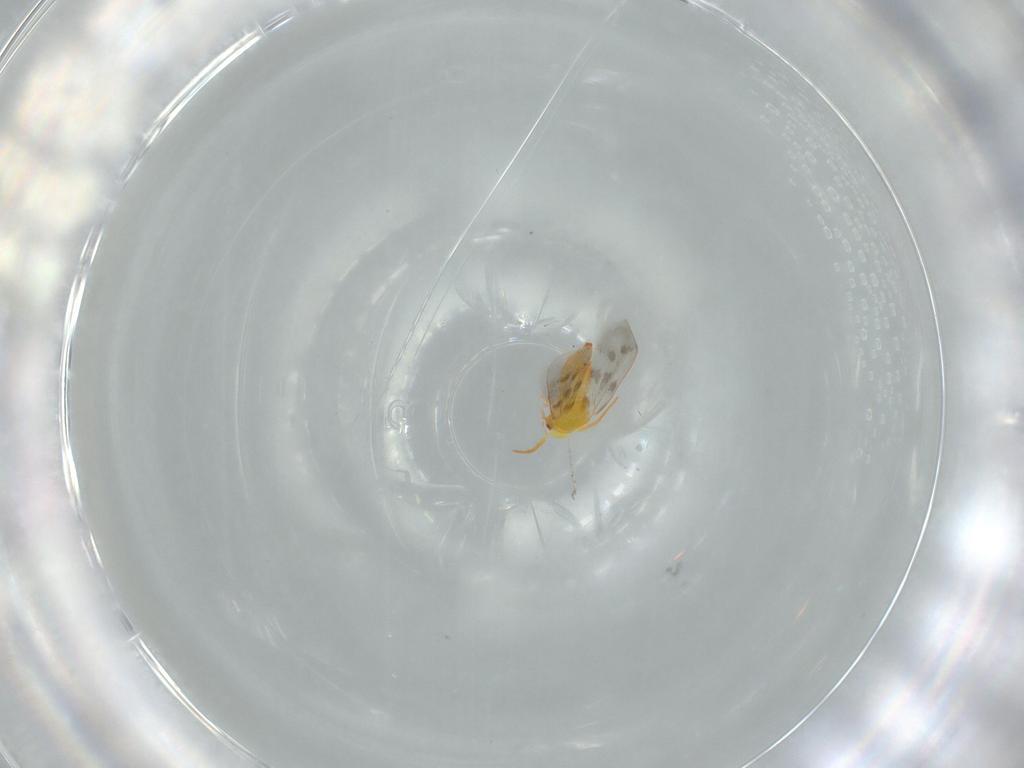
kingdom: Animalia
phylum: Arthropoda
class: Insecta
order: Hemiptera
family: Aleyrodidae
